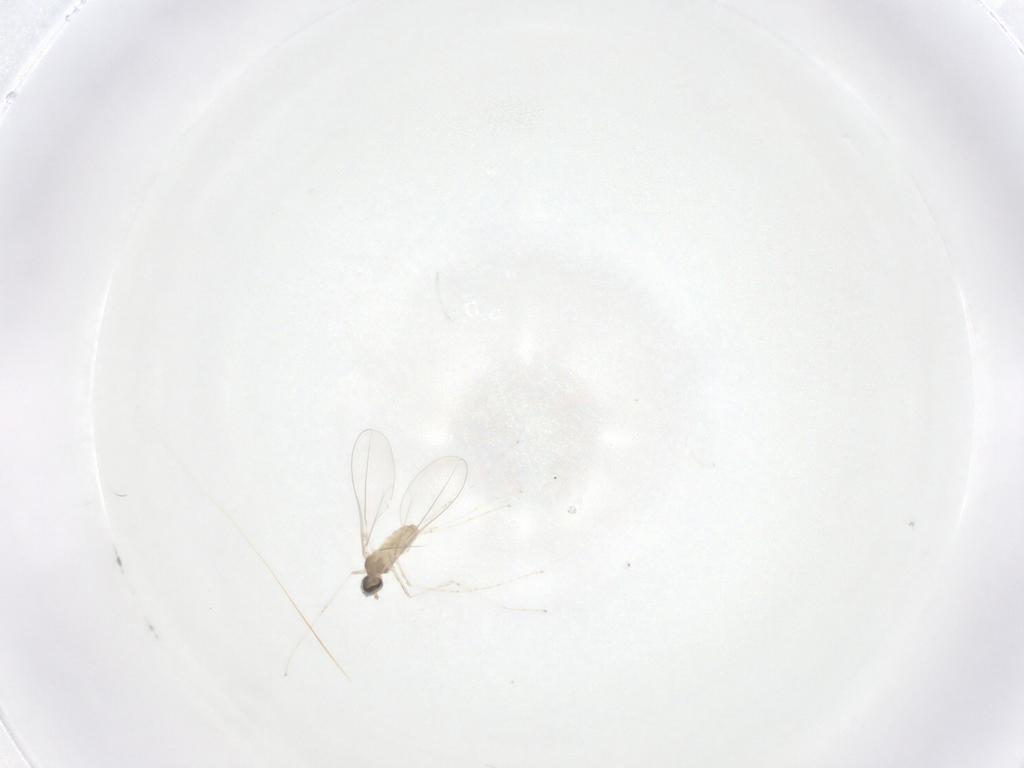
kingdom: Animalia
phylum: Arthropoda
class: Insecta
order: Diptera
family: Cecidomyiidae
